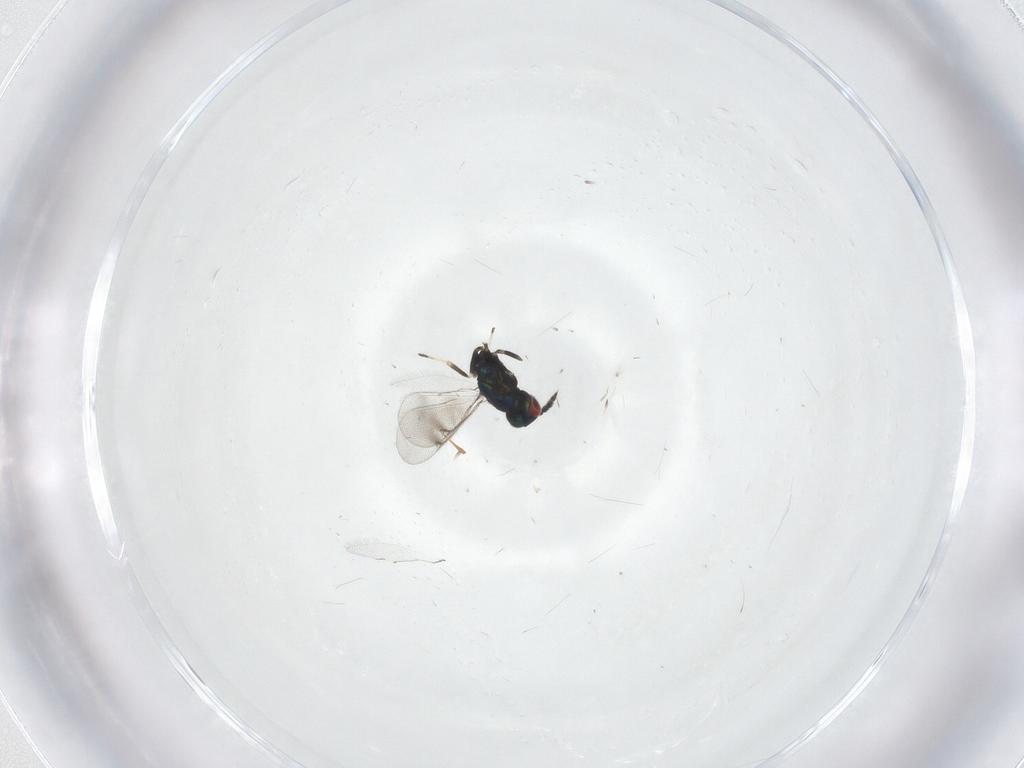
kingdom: Animalia
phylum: Arthropoda
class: Insecta
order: Hymenoptera
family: Eulophidae
